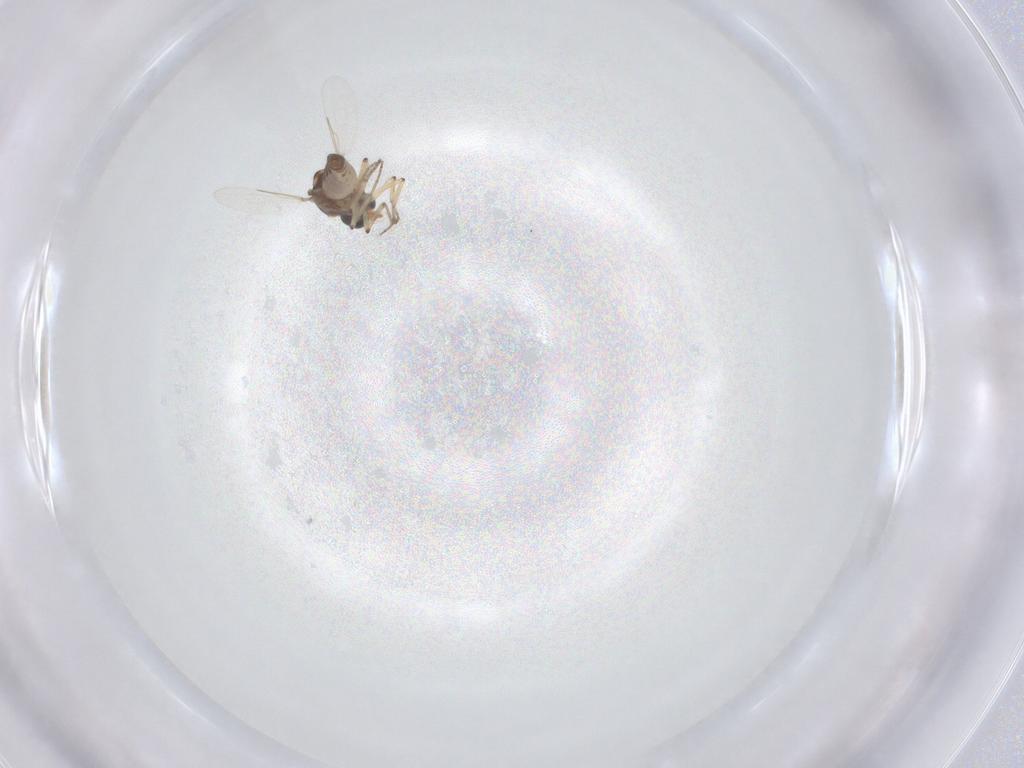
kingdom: Animalia
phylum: Arthropoda
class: Insecta
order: Diptera
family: Ceratopogonidae
